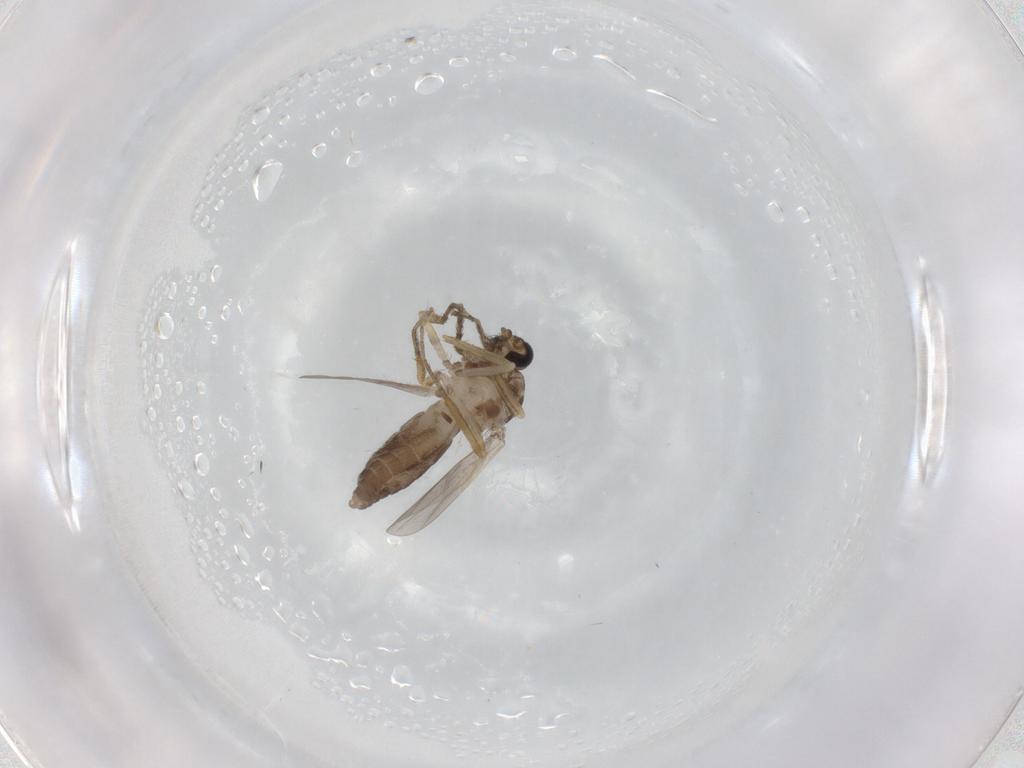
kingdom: Animalia
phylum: Arthropoda
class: Insecta
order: Diptera
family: Ceratopogonidae
